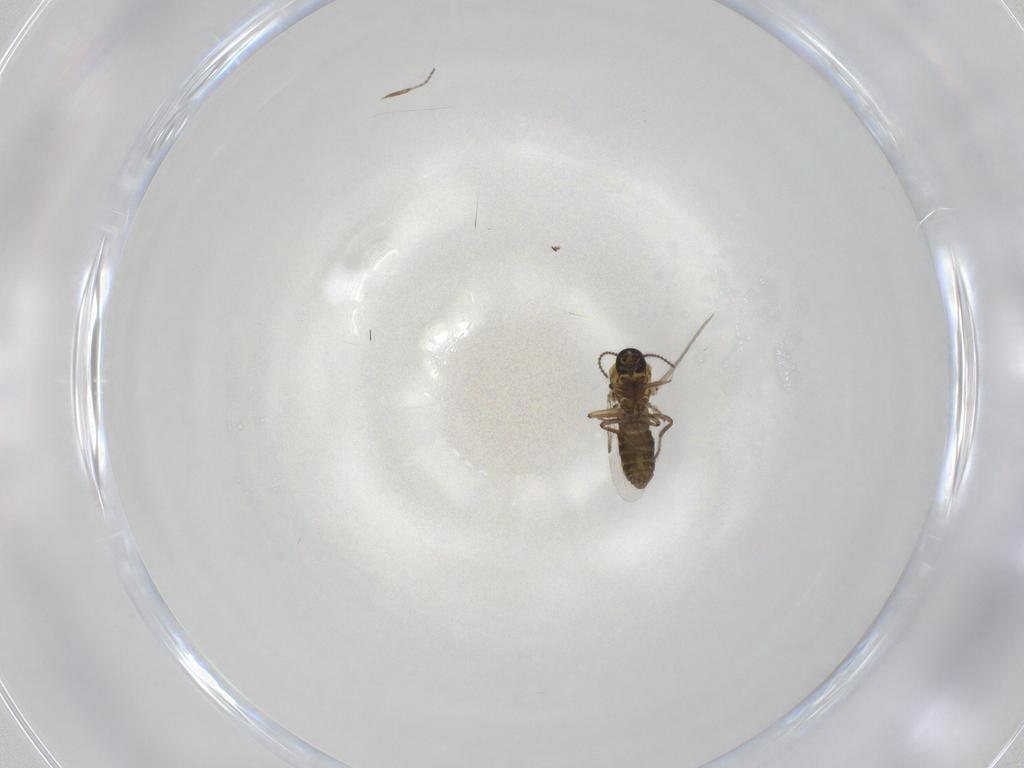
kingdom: Animalia
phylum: Arthropoda
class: Insecta
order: Diptera
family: Ceratopogonidae
